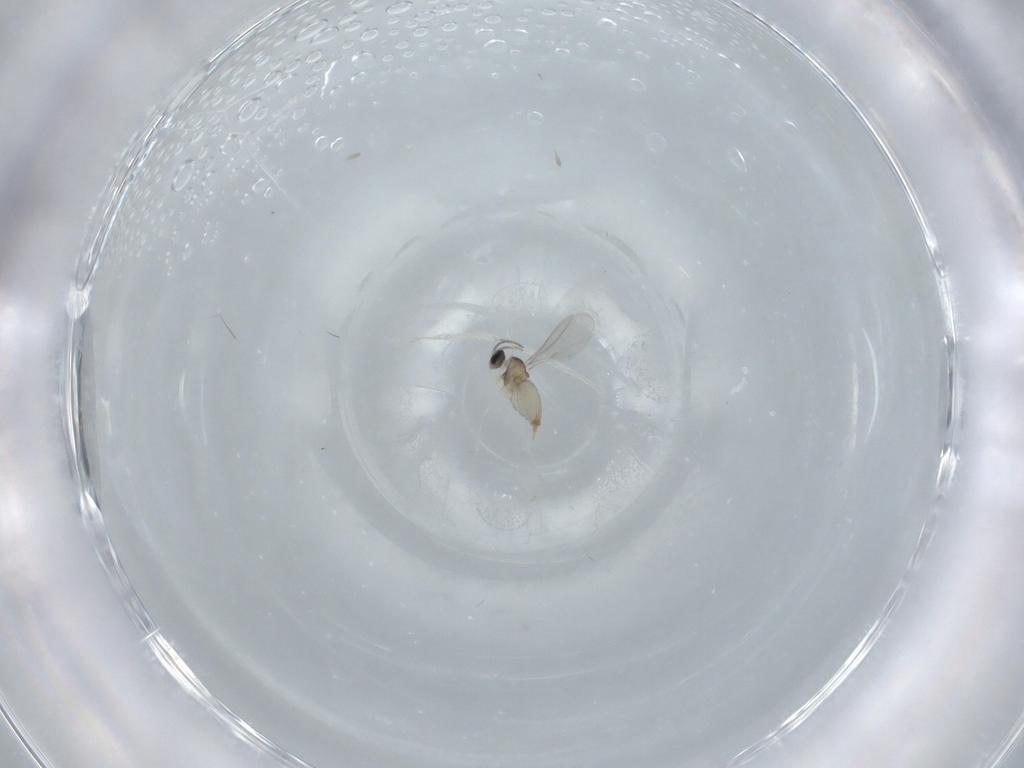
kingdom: Animalia
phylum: Arthropoda
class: Insecta
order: Diptera
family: Cecidomyiidae
